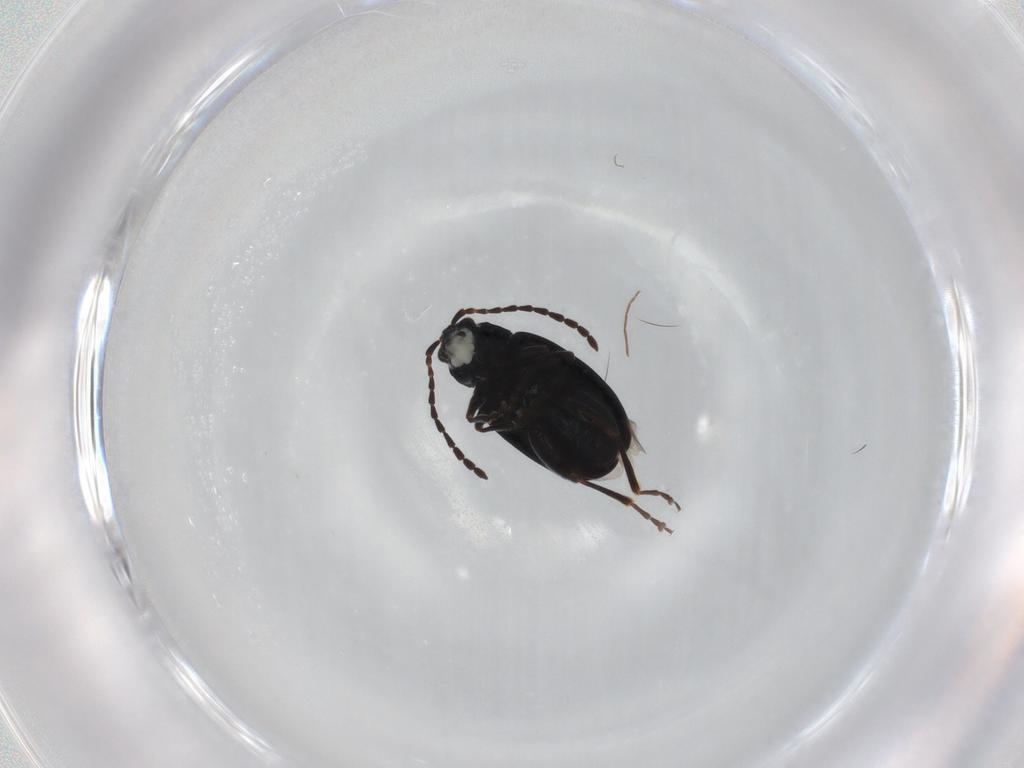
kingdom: Animalia
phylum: Arthropoda
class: Insecta
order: Coleoptera
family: Chrysomelidae
